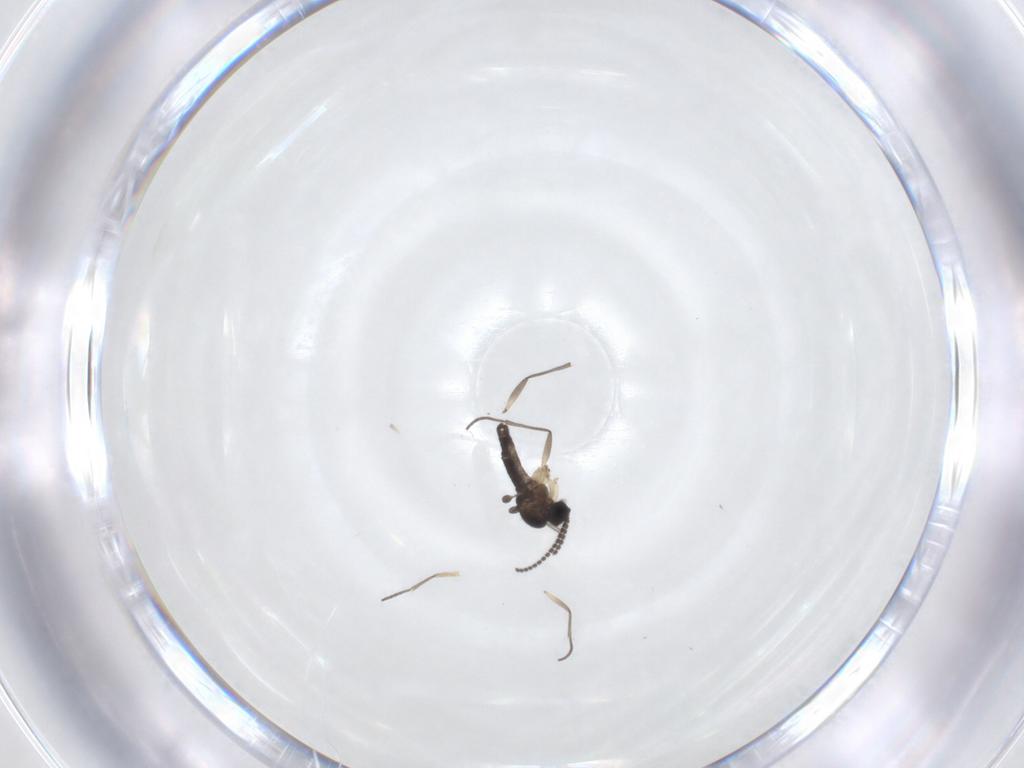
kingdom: Animalia
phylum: Arthropoda
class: Insecta
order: Diptera
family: Sciaridae
